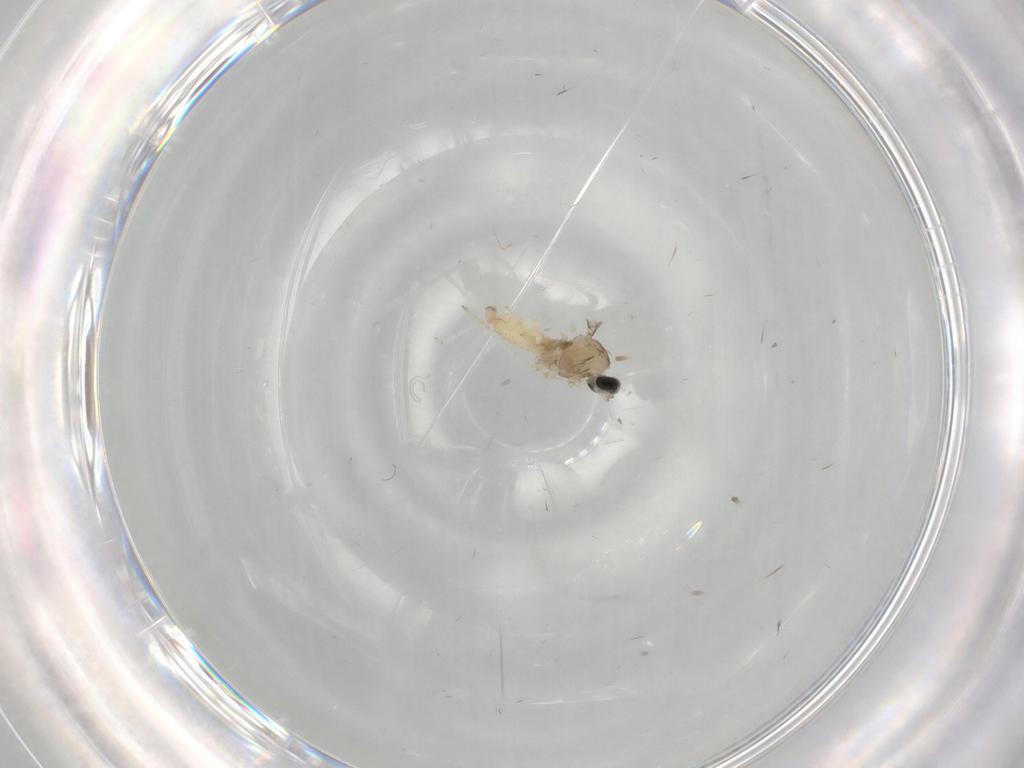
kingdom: Animalia
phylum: Arthropoda
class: Insecta
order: Diptera
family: Cecidomyiidae
